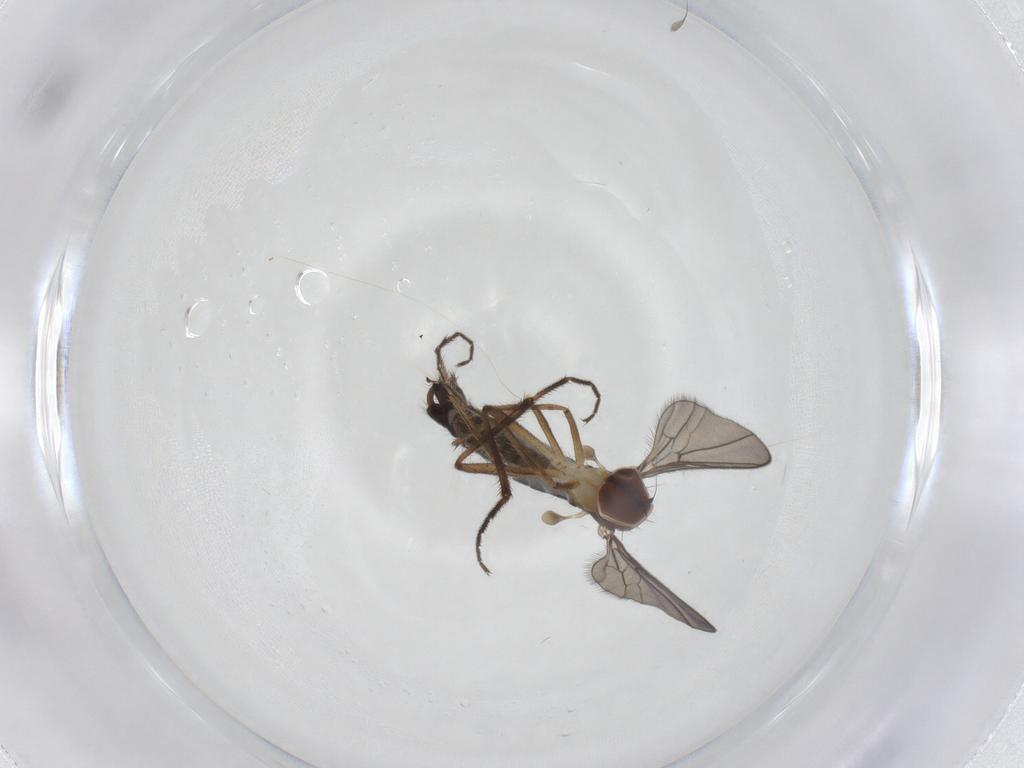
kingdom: Animalia
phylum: Arthropoda
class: Insecta
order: Diptera
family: Hybotidae
